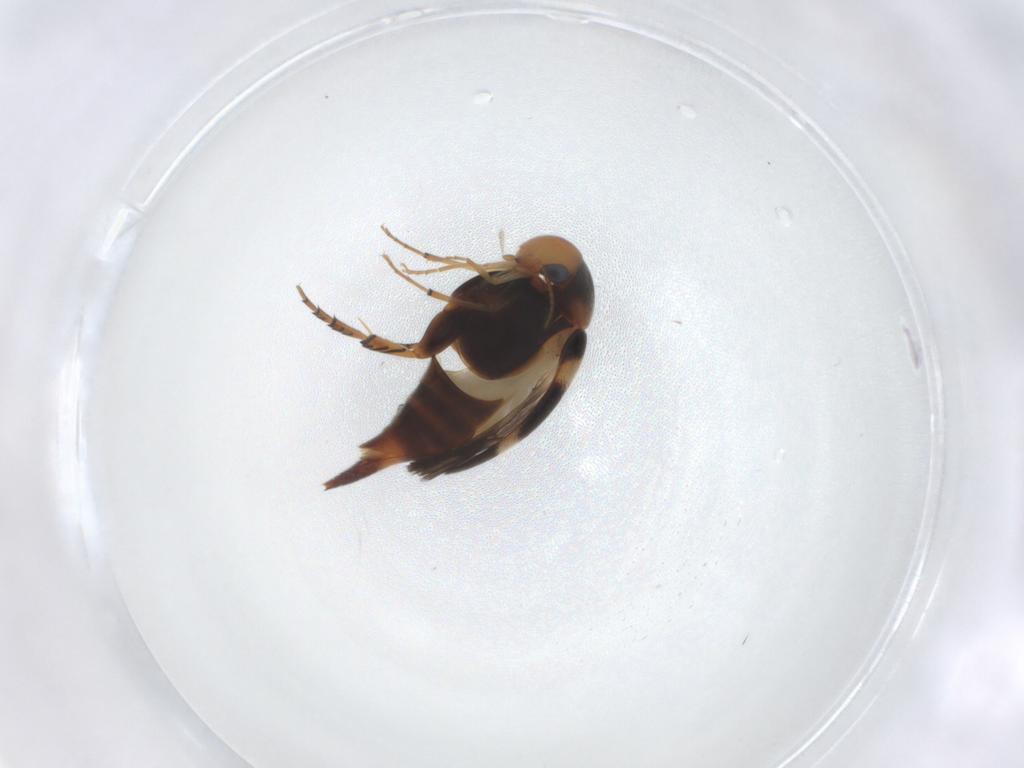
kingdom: Animalia
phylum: Arthropoda
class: Insecta
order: Coleoptera
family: Mordellidae
